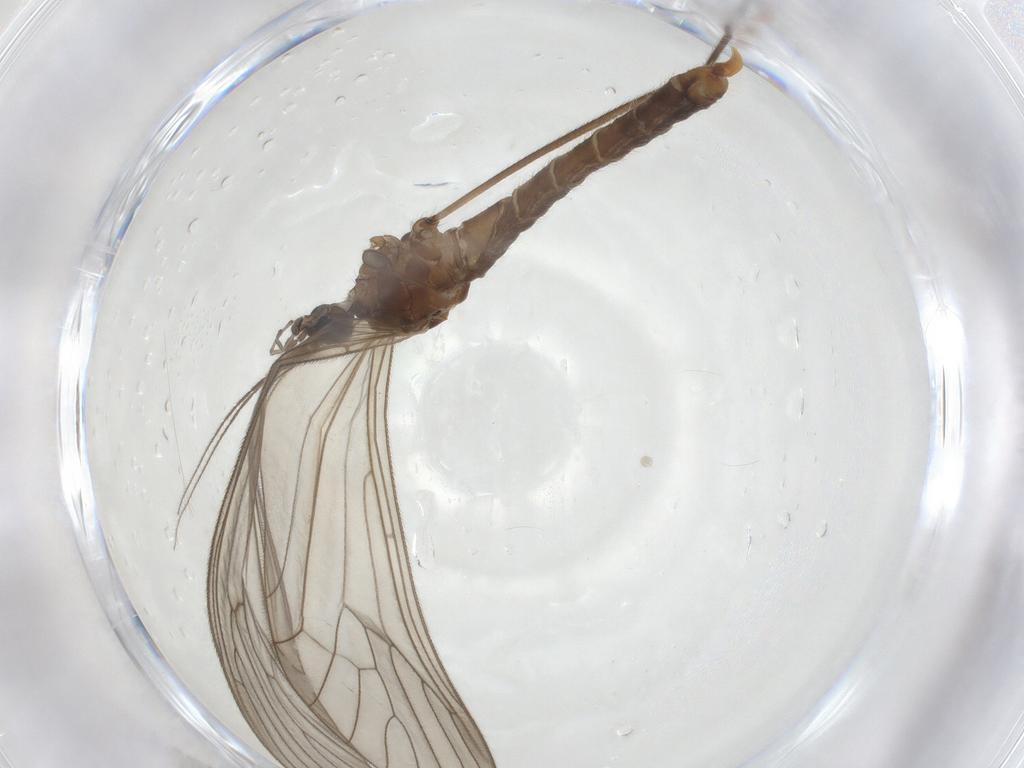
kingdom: Animalia
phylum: Arthropoda
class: Insecta
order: Diptera
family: Trichoceridae
